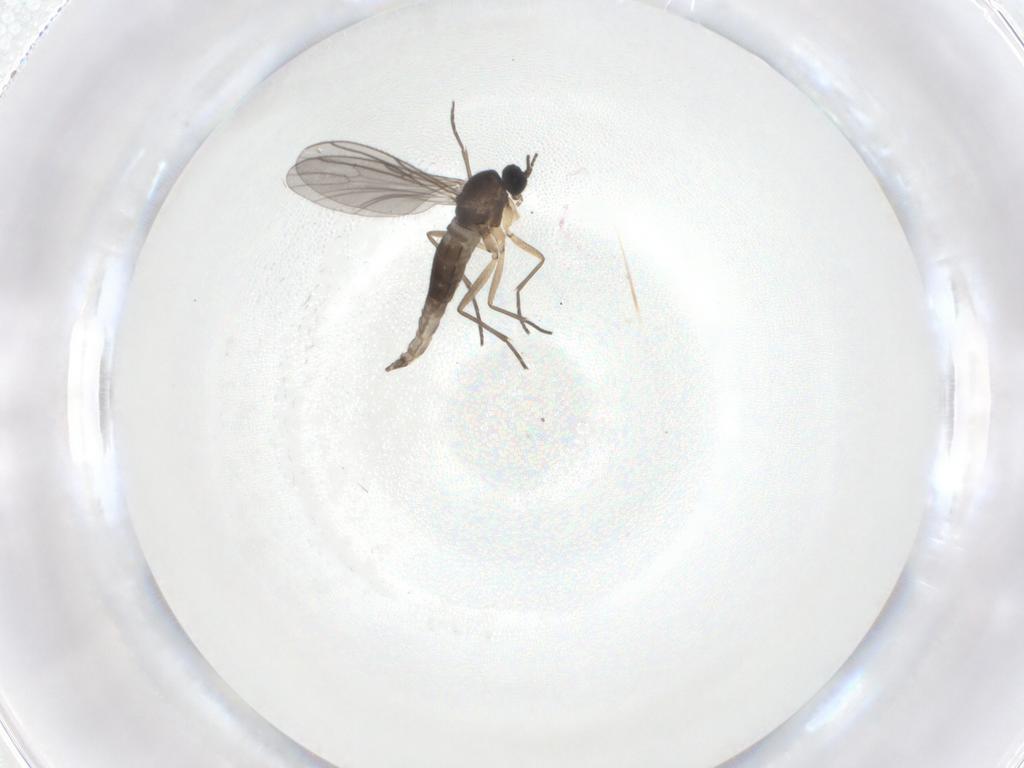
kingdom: Animalia
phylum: Arthropoda
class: Insecta
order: Diptera
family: Sciaridae
